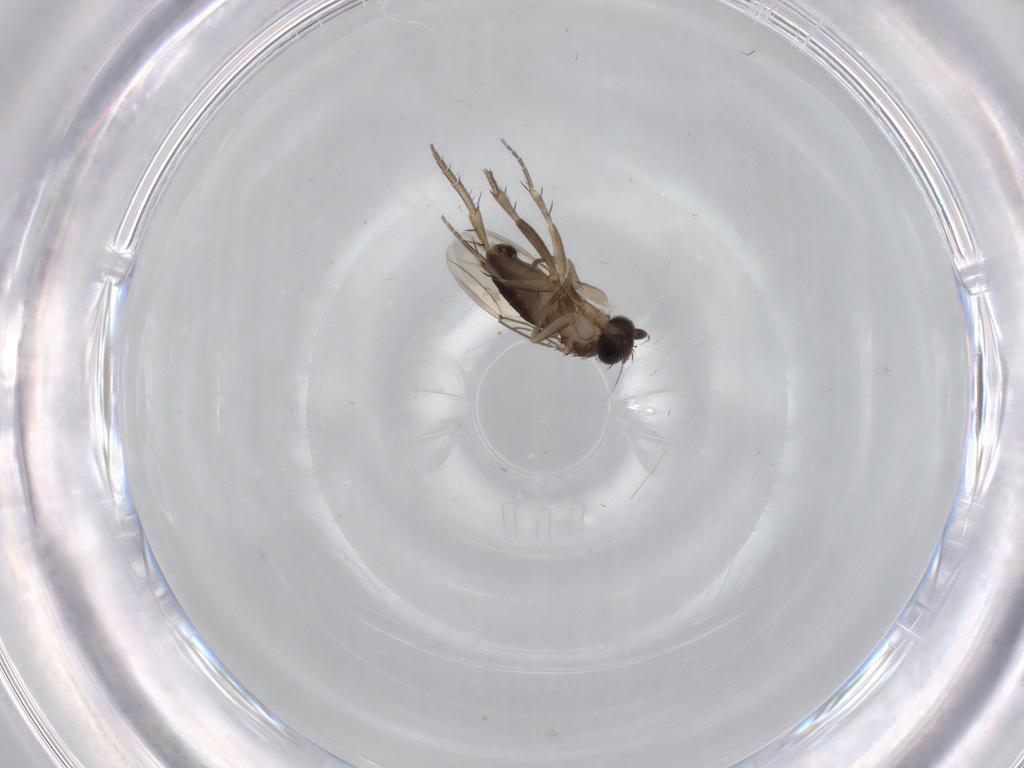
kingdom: Animalia
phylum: Arthropoda
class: Insecta
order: Diptera
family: Phoridae
